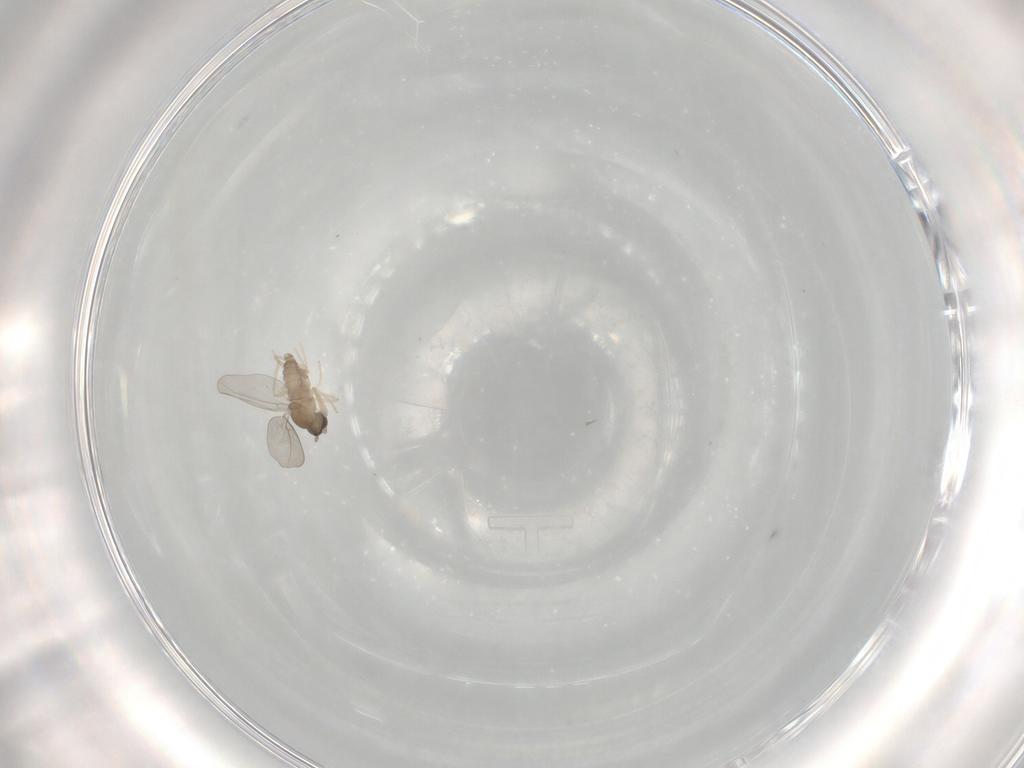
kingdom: Animalia
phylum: Arthropoda
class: Insecta
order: Diptera
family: Cecidomyiidae
